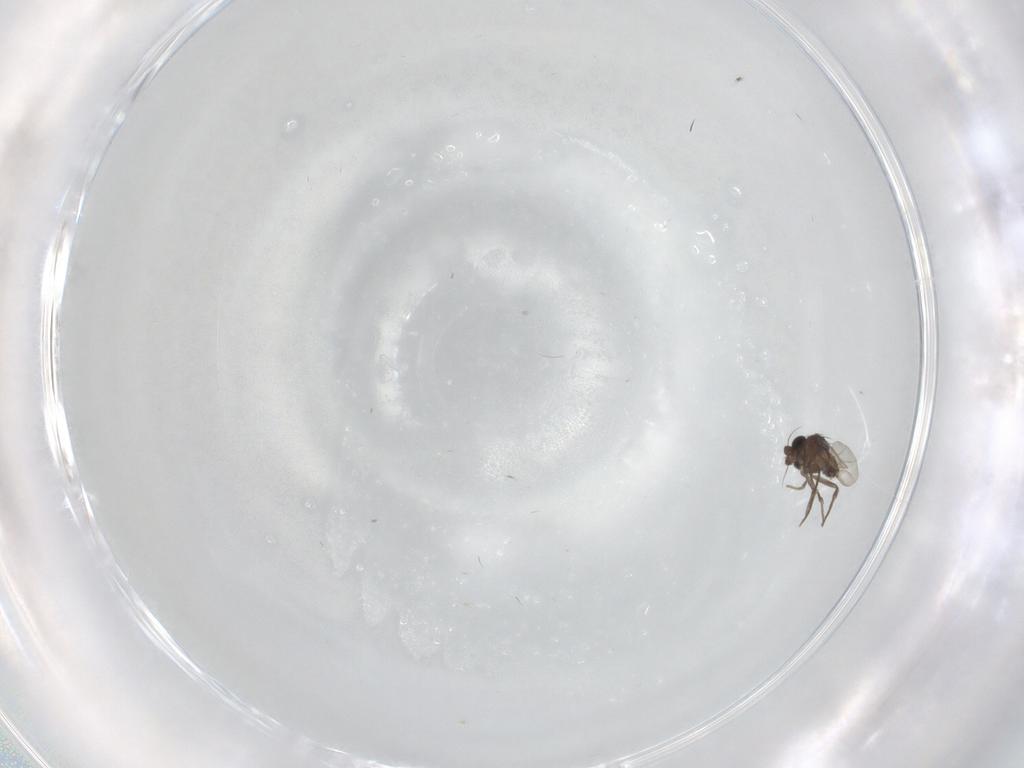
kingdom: Animalia
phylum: Arthropoda
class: Insecta
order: Diptera
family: Phoridae
